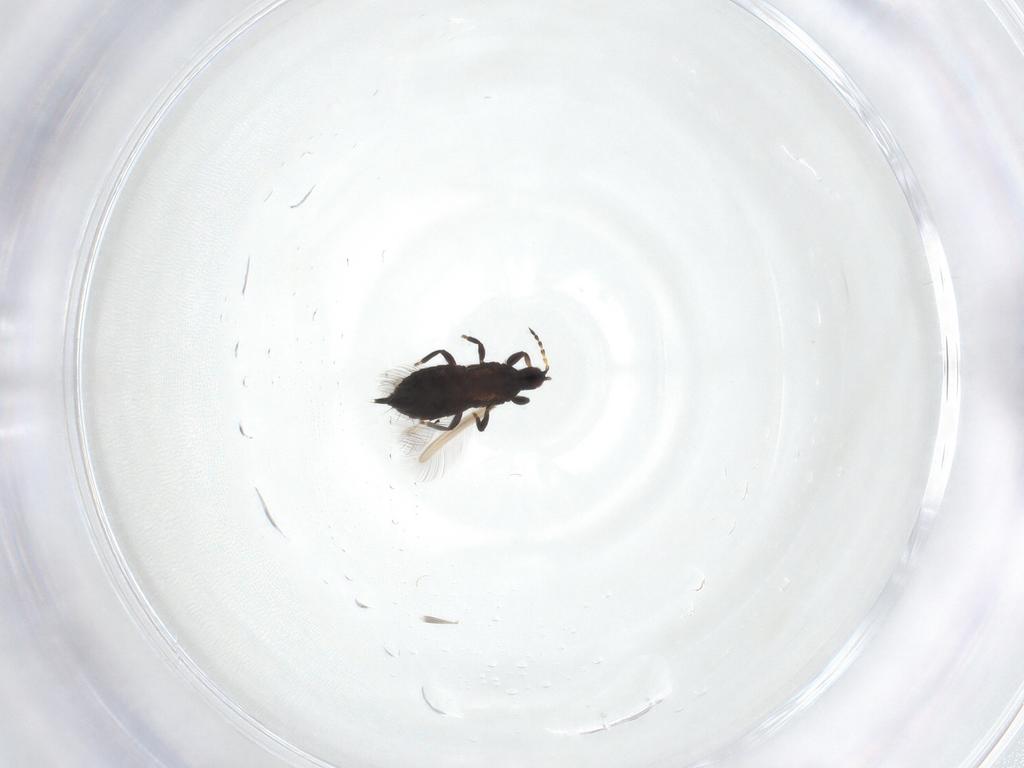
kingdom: Animalia
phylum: Arthropoda
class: Insecta
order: Thysanoptera
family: Phlaeothripidae
